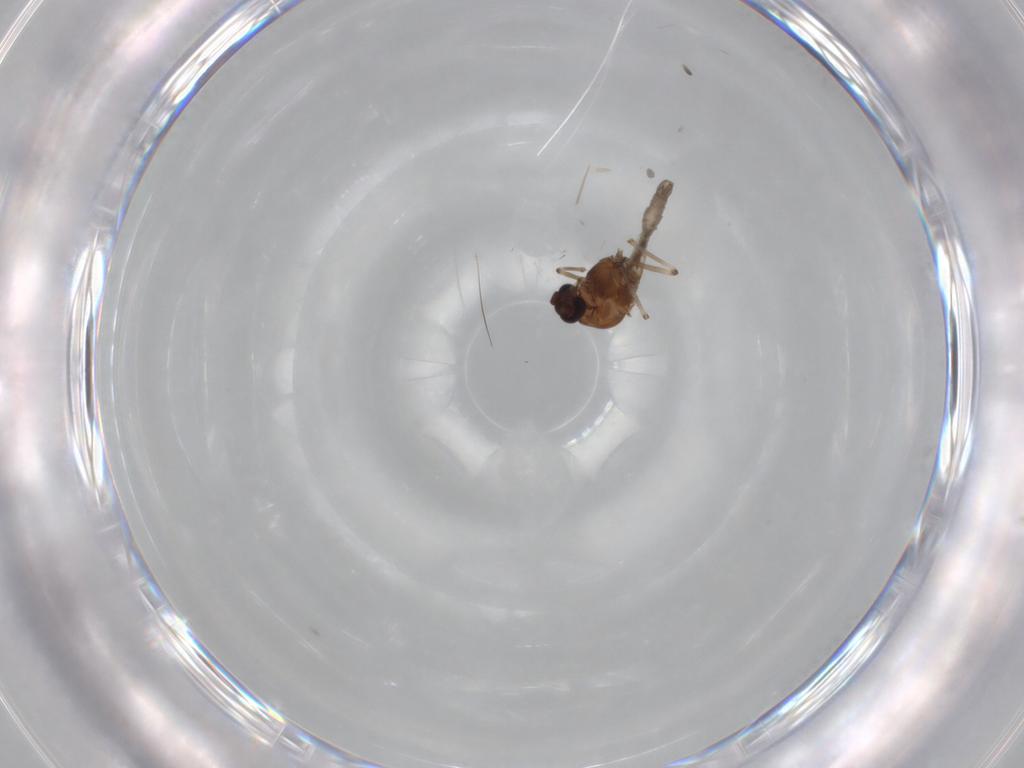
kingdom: Animalia
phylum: Arthropoda
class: Insecta
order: Diptera
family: Ceratopogonidae
